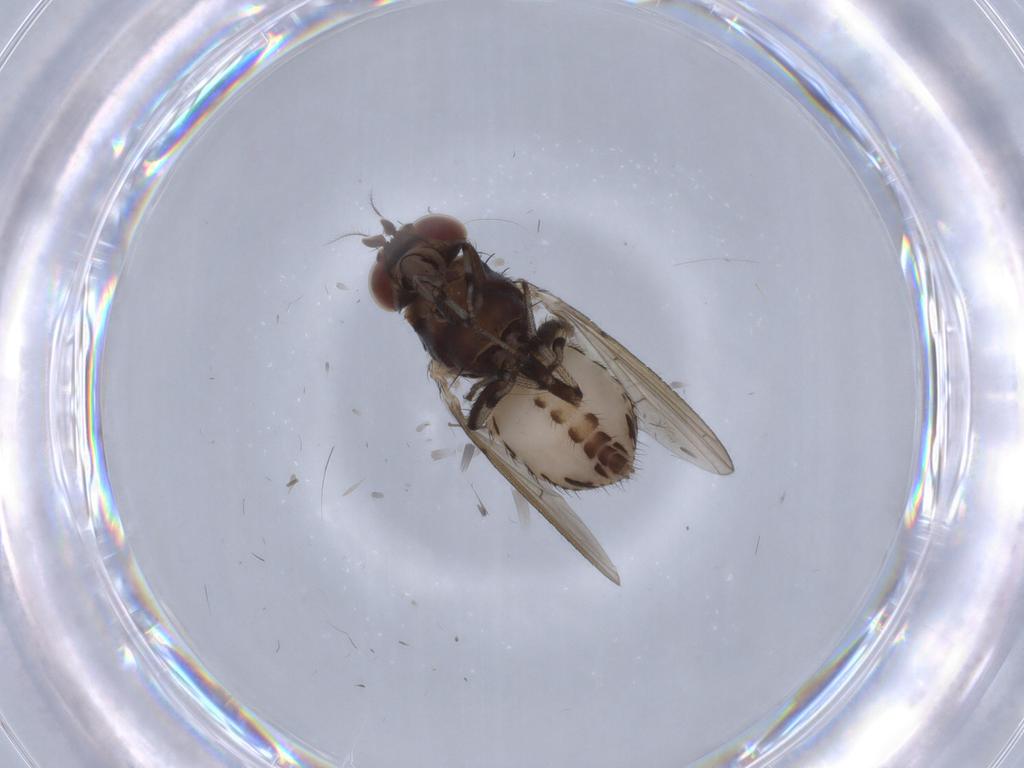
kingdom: Animalia
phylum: Arthropoda
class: Insecta
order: Diptera
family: Ceratopogonidae
